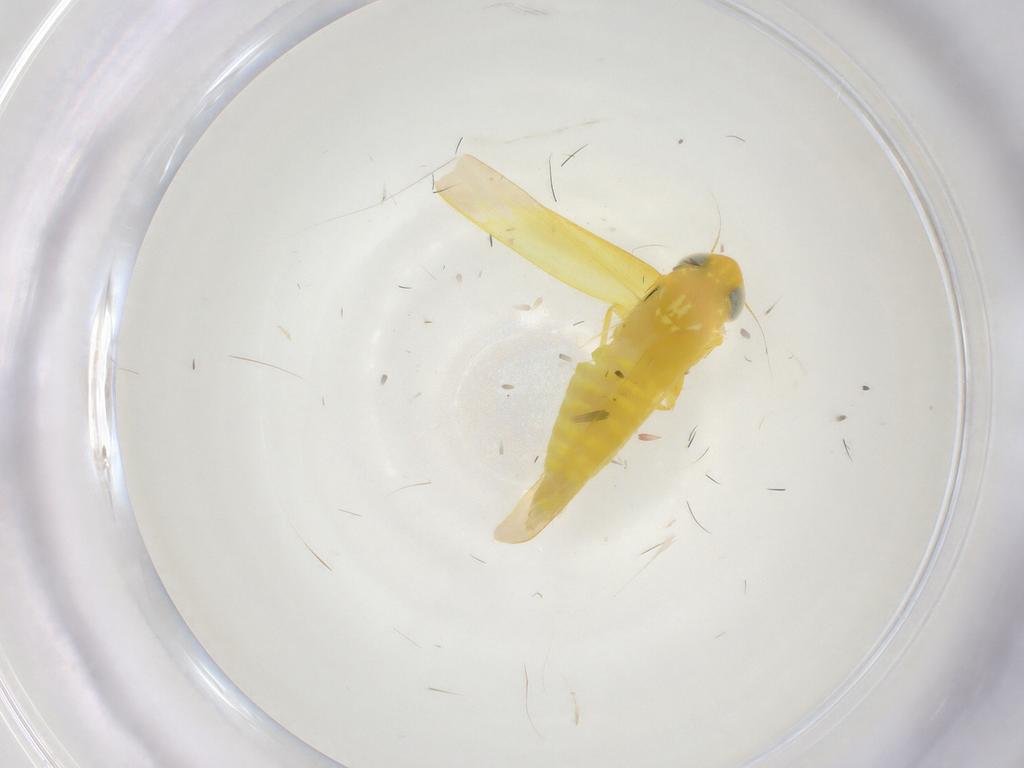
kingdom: Animalia
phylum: Arthropoda
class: Insecta
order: Hemiptera
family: Cicadellidae
